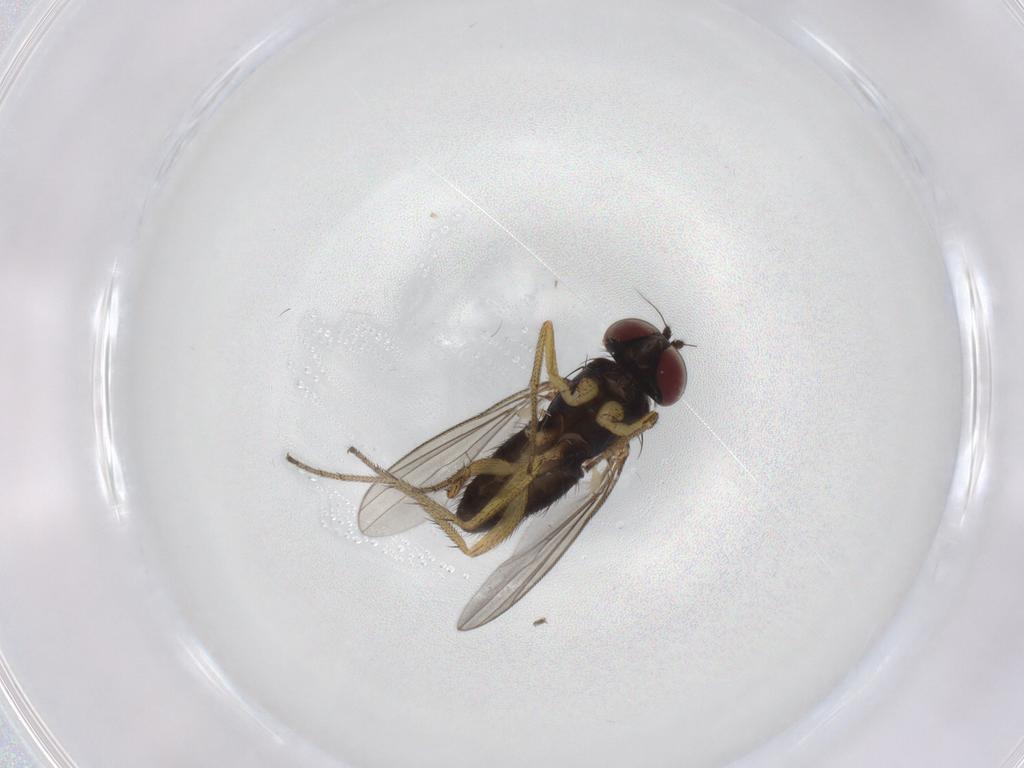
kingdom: Animalia
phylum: Arthropoda
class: Insecta
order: Diptera
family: Dolichopodidae
